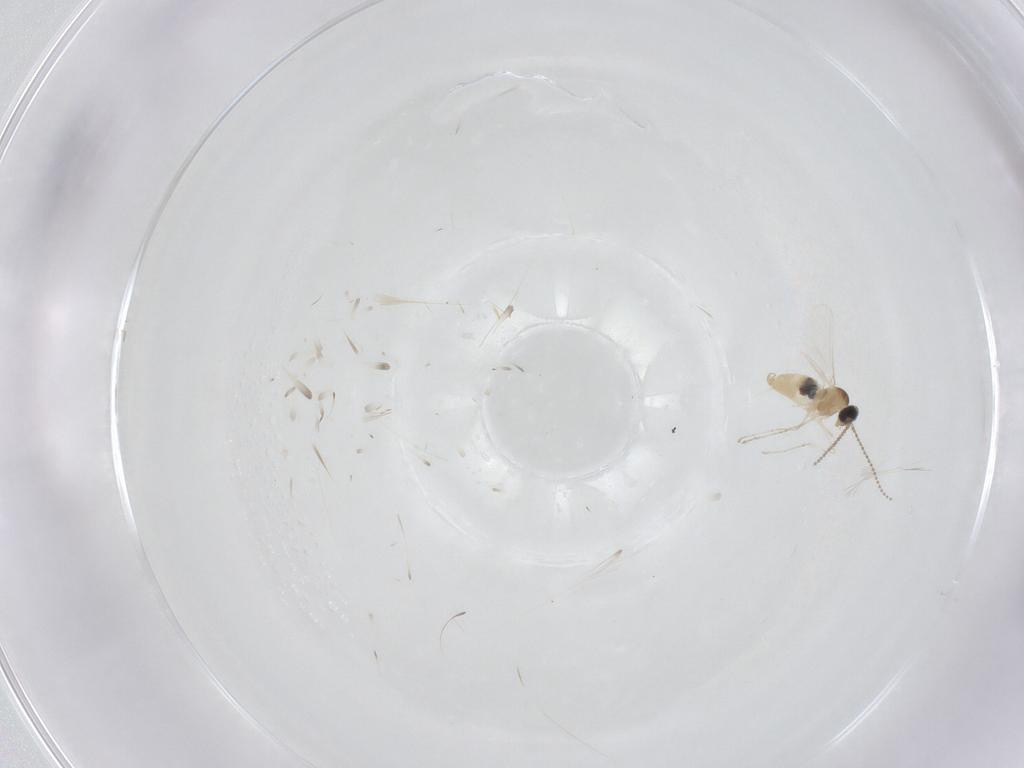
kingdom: Animalia
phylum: Arthropoda
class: Insecta
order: Diptera
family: Cecidomyiidae
